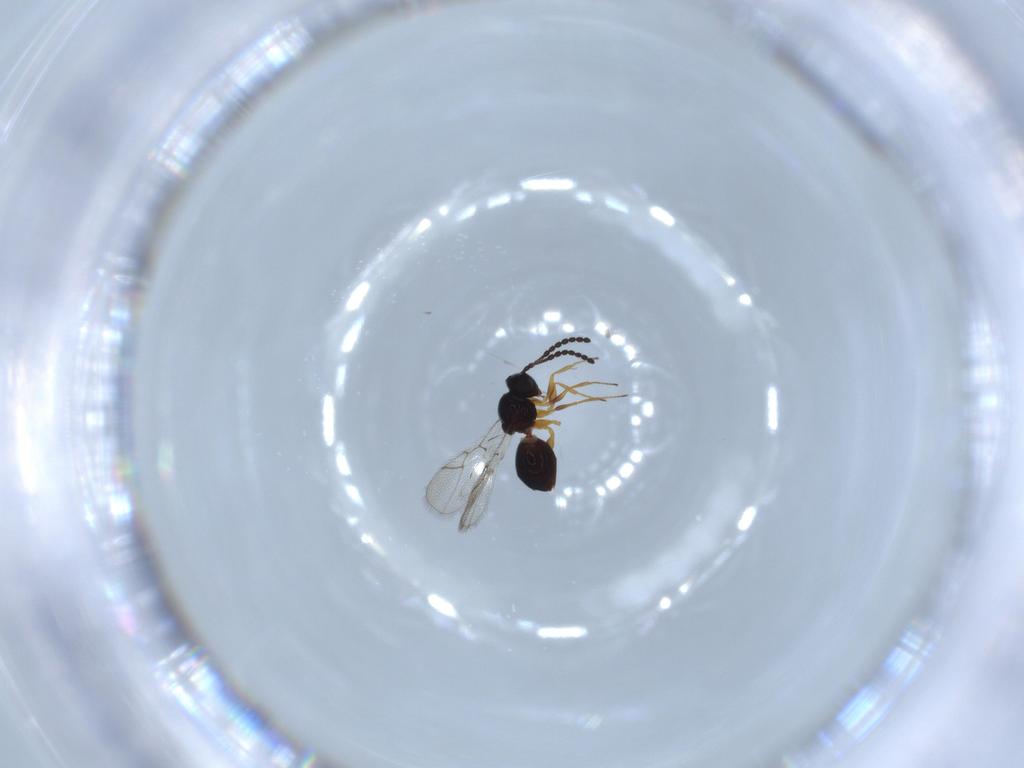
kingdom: Animalia
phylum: Arthropoda
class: Insecta
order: Hymenoptera
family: Figitidae
